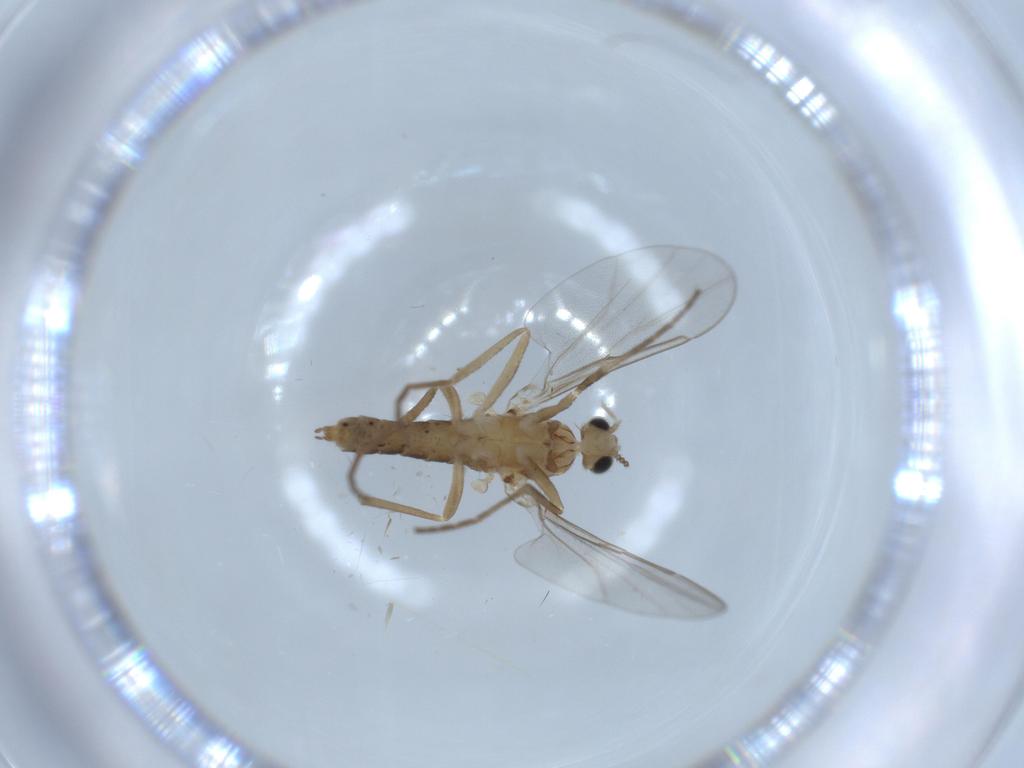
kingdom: Animalia
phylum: Arthropoda
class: Insecta
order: Diptera
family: Cecidomyiidae
